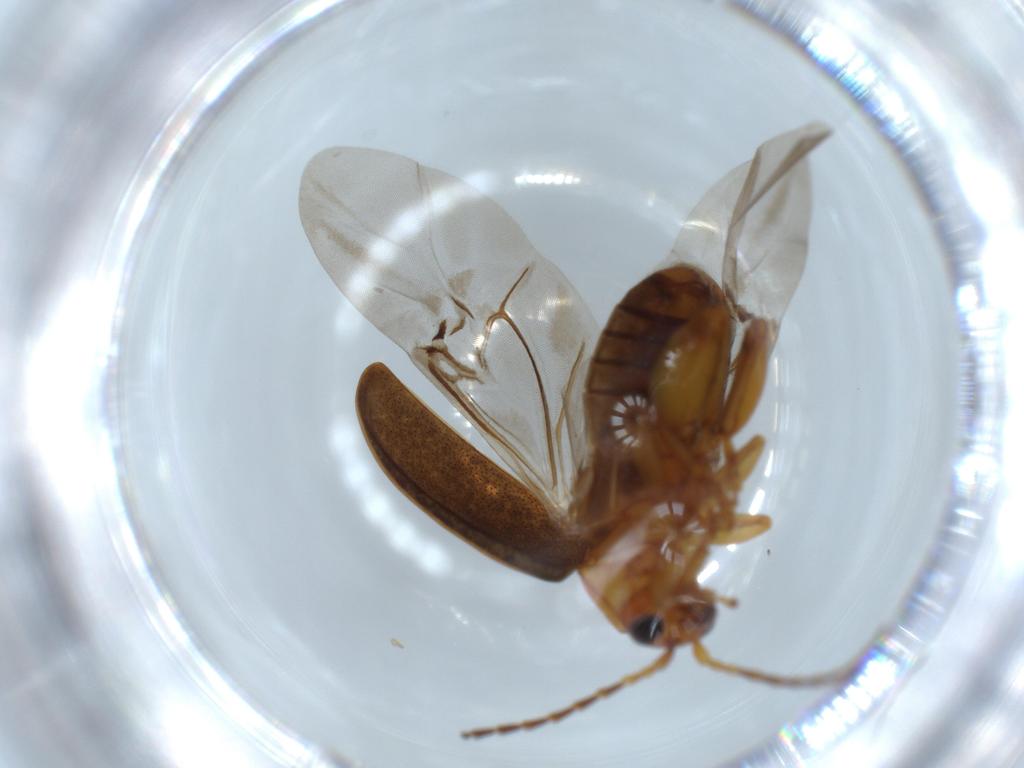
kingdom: Animalia
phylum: Arthropoda
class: Insecta
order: Coleoptera
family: Chrysomelidae
